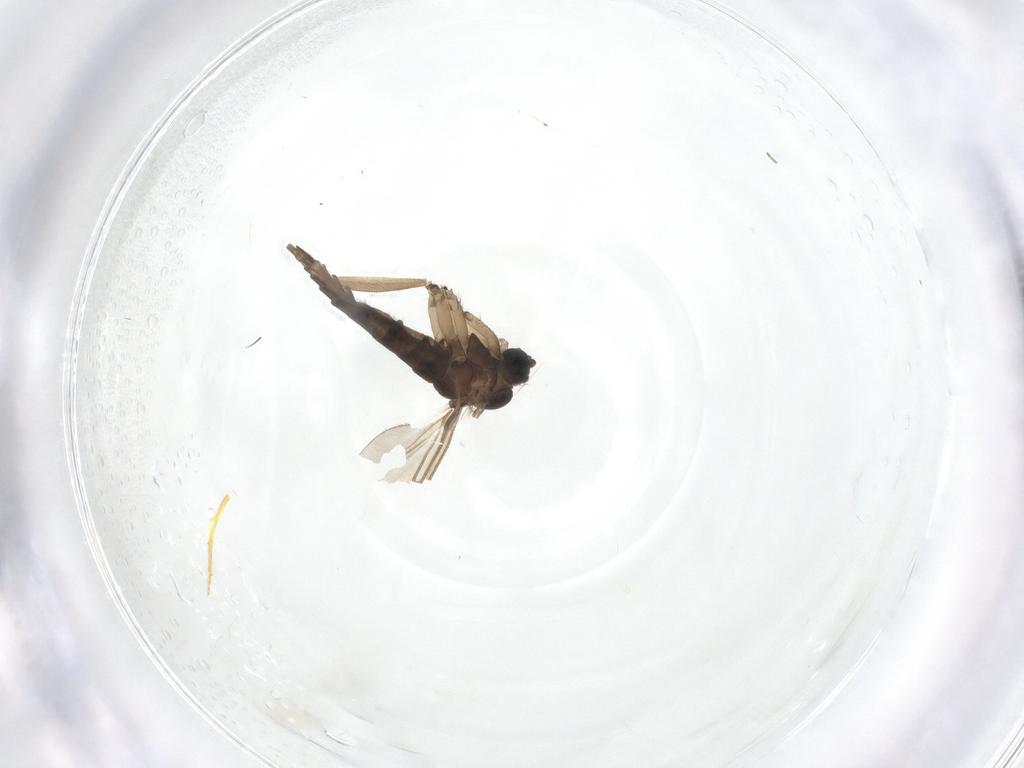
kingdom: Animalia
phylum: Arthropoda
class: Insecta
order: Diptera
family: Sciaridae
